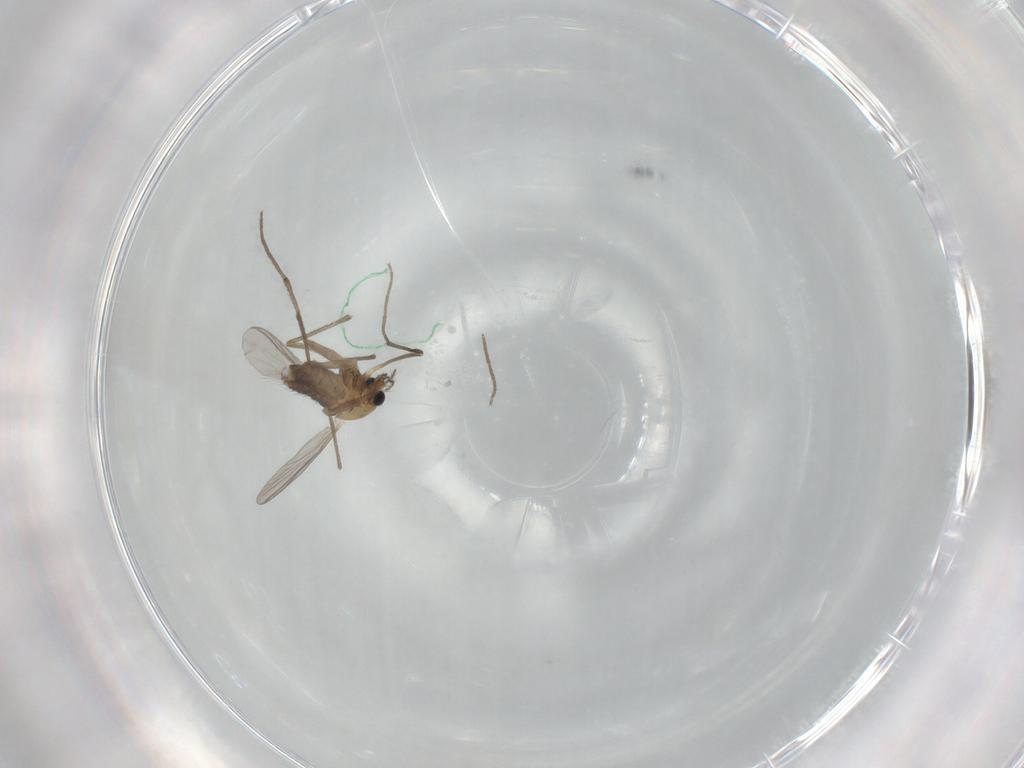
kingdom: Animalia
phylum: Arthropoda
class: Insecta
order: Diptera
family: Chironomidae
